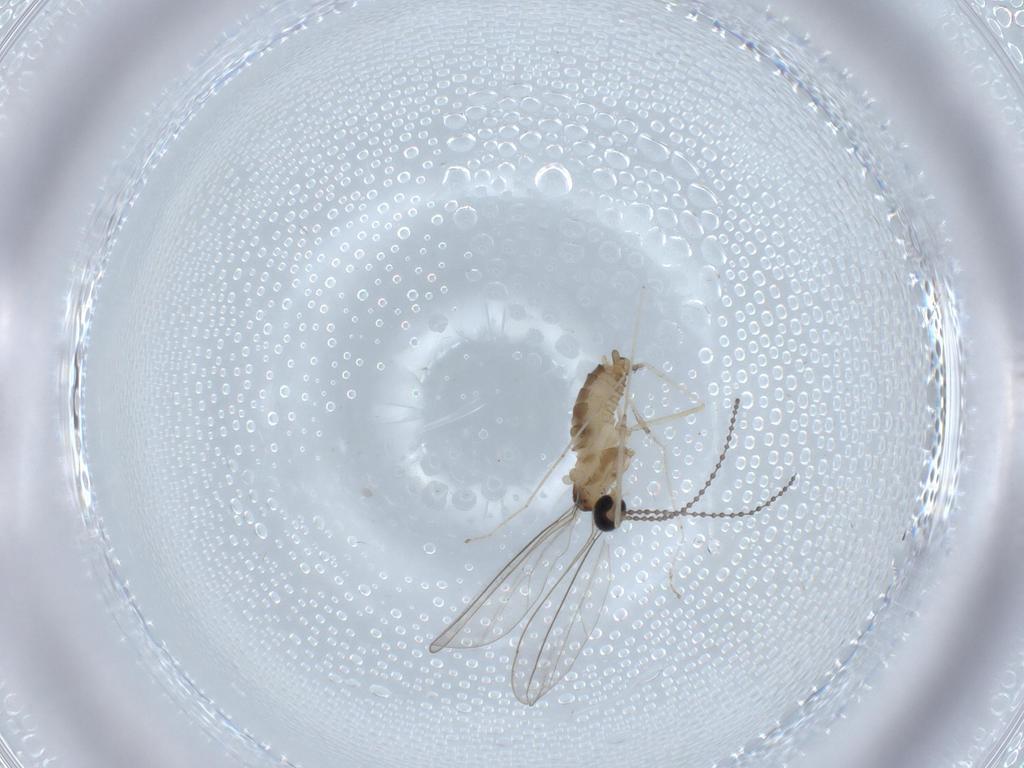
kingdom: Animalia
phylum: Arthropoda
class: Insecta
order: Diptera
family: Cecidomyiidae
